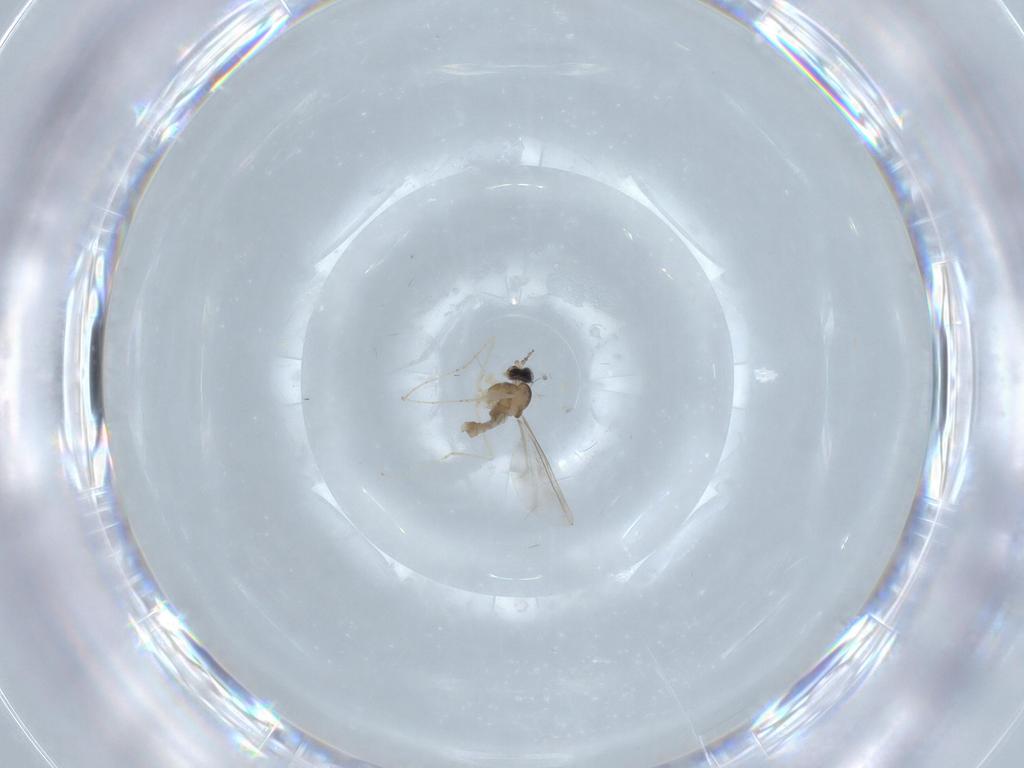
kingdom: Animalia
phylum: Arthropoda
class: Insecta
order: Diptera
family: Cecidomyiidae
